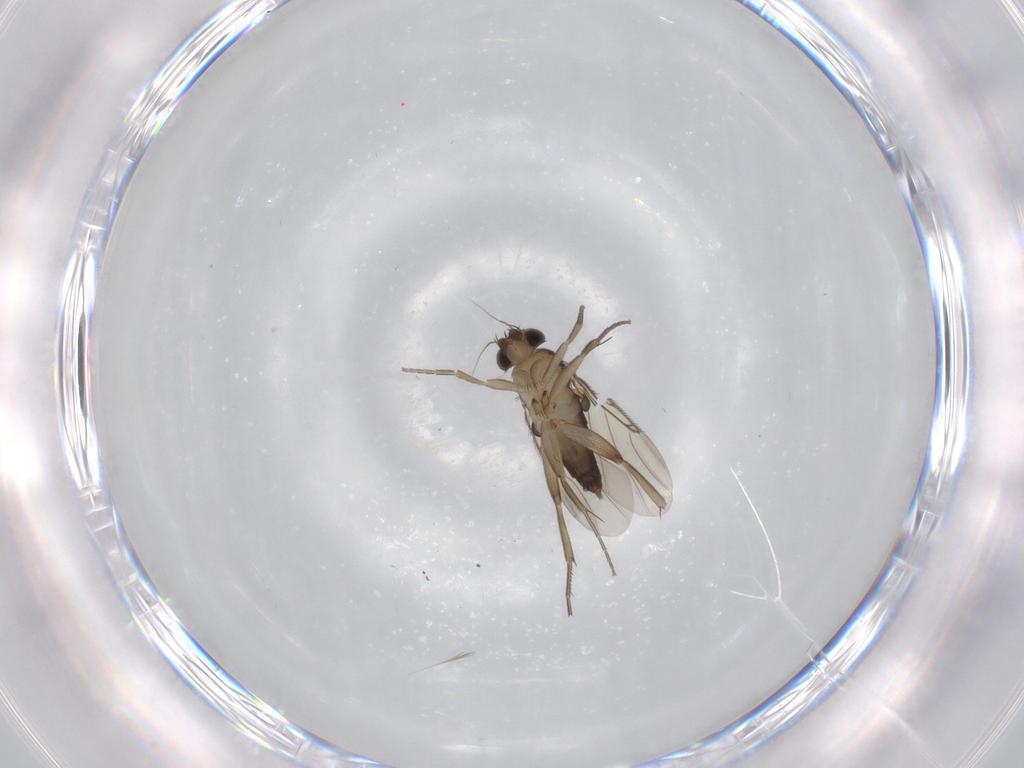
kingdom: Animalia
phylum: Arthropoda
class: Insecta
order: Diptera
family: Phoridae
